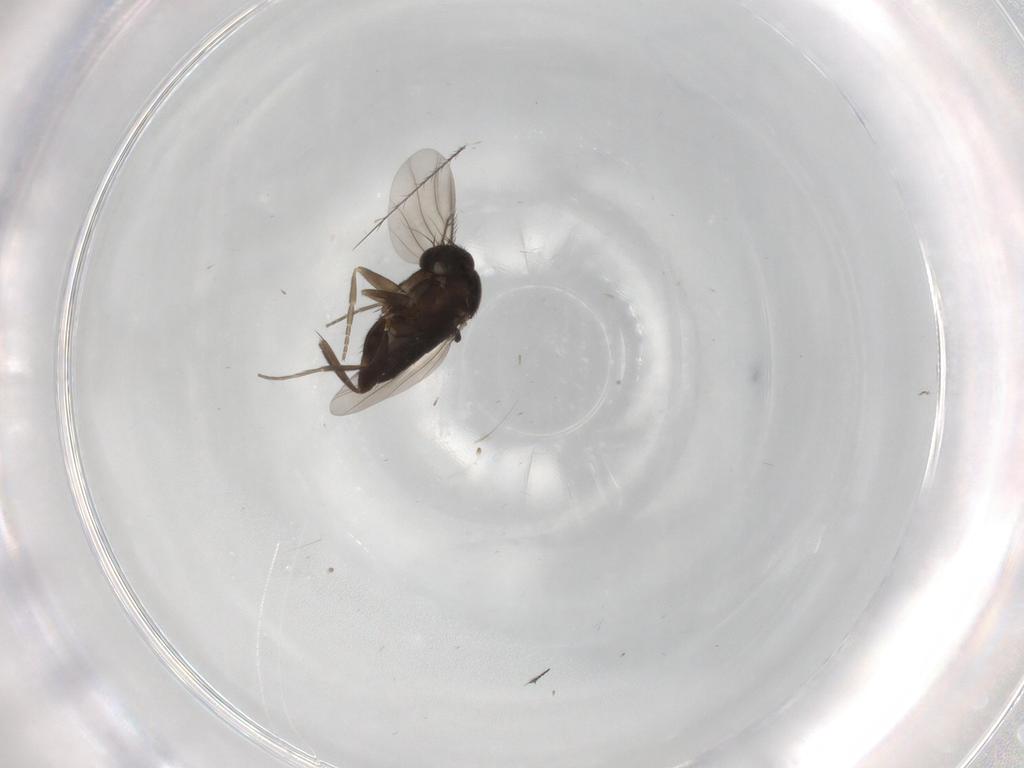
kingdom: Animalia
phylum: Arthropoda
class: Insecta
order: Diptera
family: Phoridae
